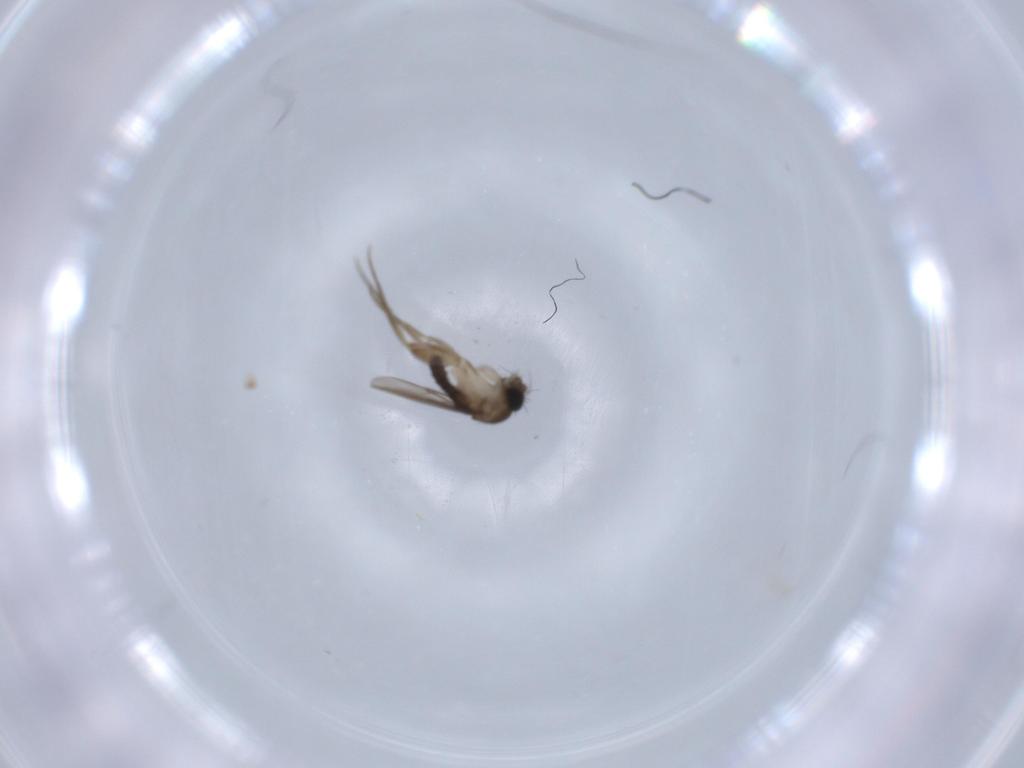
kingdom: Animalia
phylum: Arthropoda
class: Insecta
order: Diptera
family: Phoridae
